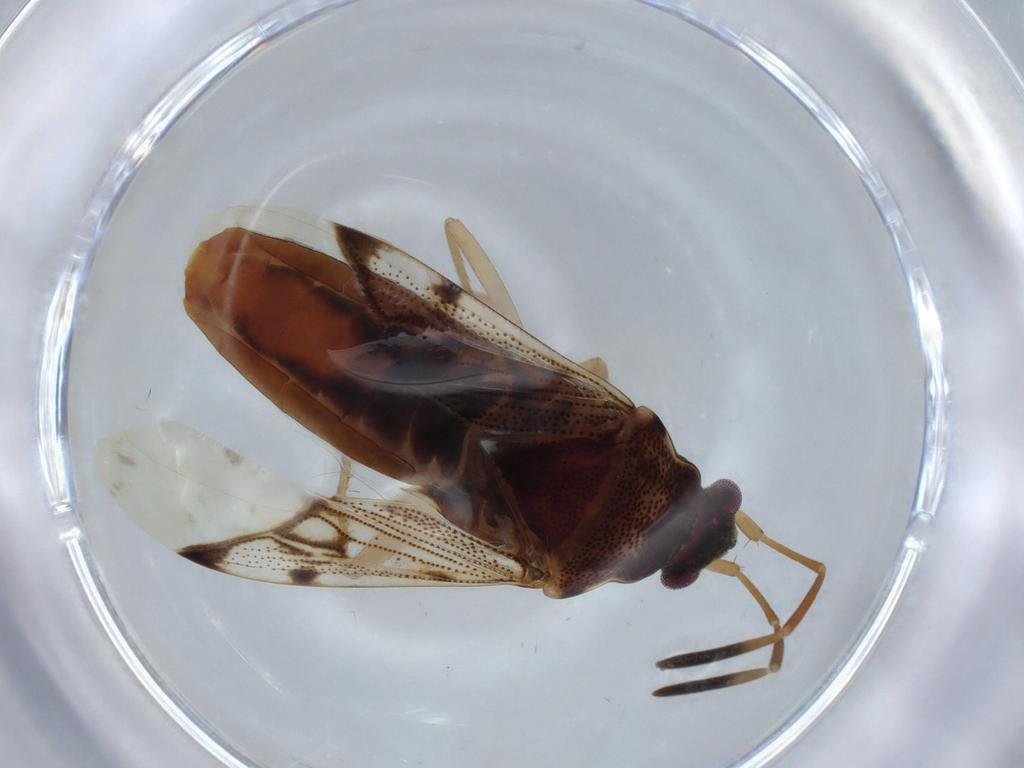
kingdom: Animalia
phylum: Arthropoda
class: Insecta
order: Hemiptera
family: Rhyparochromidae
